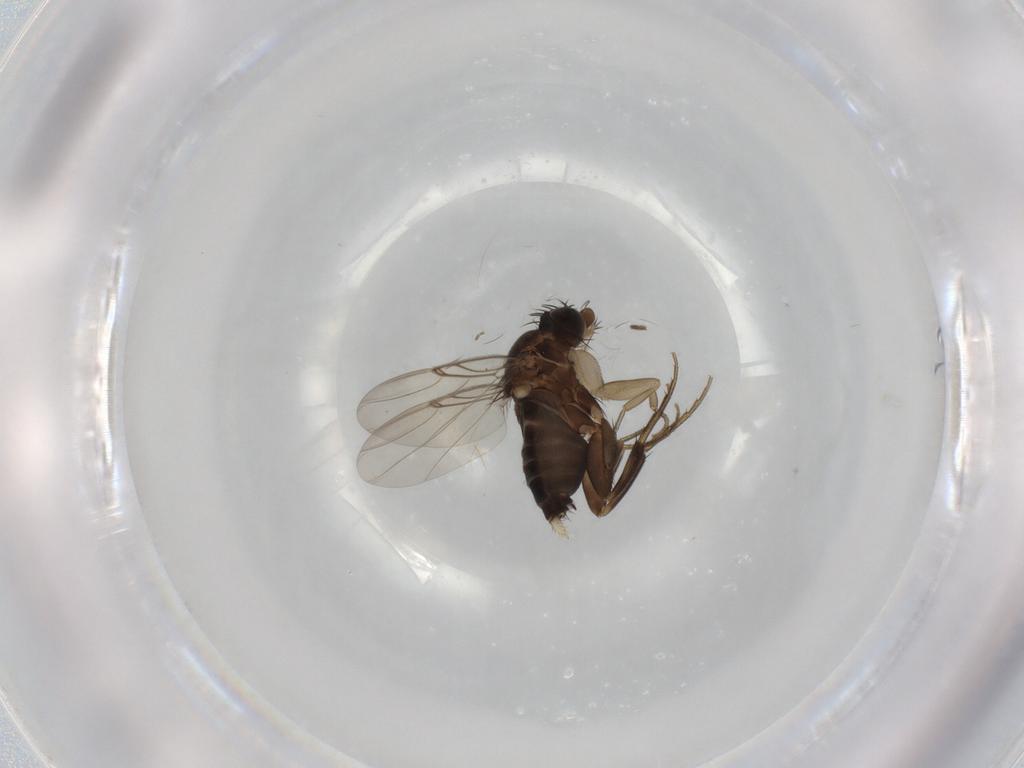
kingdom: Animalia
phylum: Arthropoda
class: Insecta
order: Diptera
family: Phoridae
